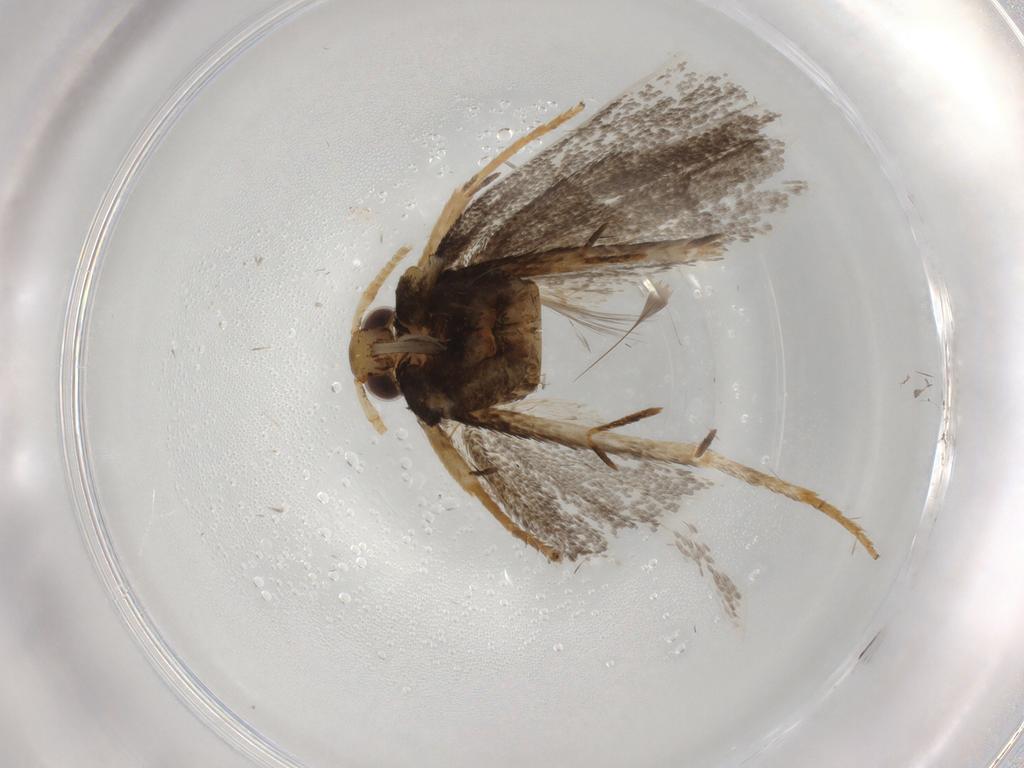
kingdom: Animalia
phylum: Arthropoda
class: Insecta
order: Lepidoptera
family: Lecithoceridae
